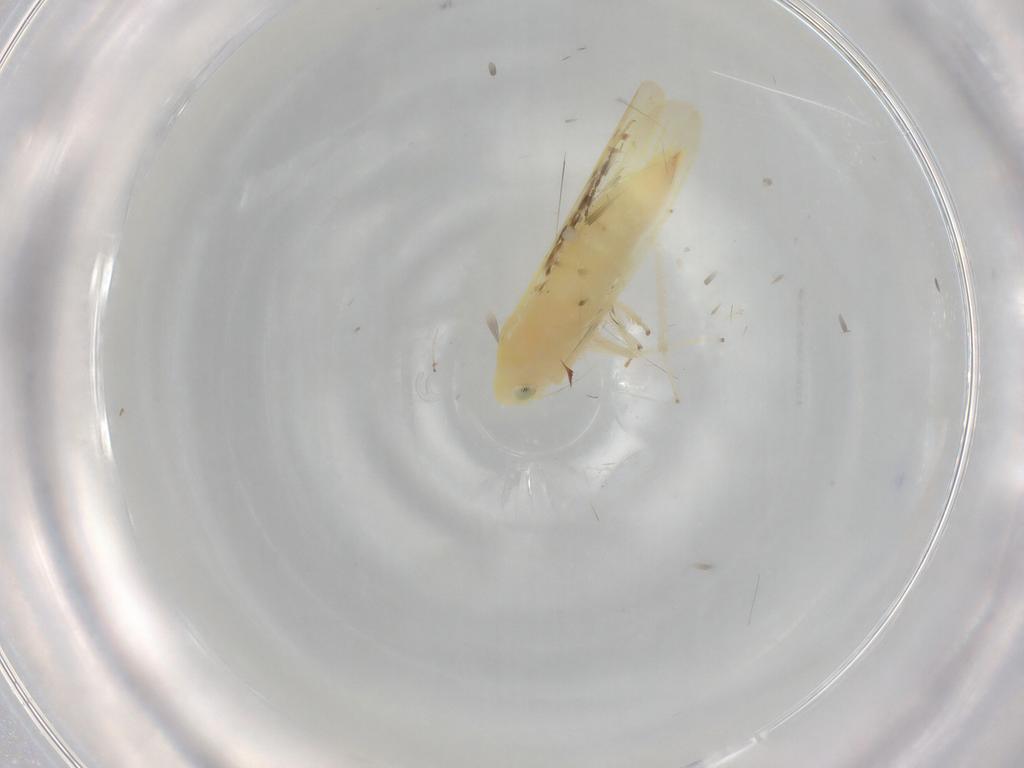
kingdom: Animalia
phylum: Arthropoda
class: Insecta
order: Hemiptera
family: Cicadellidae
